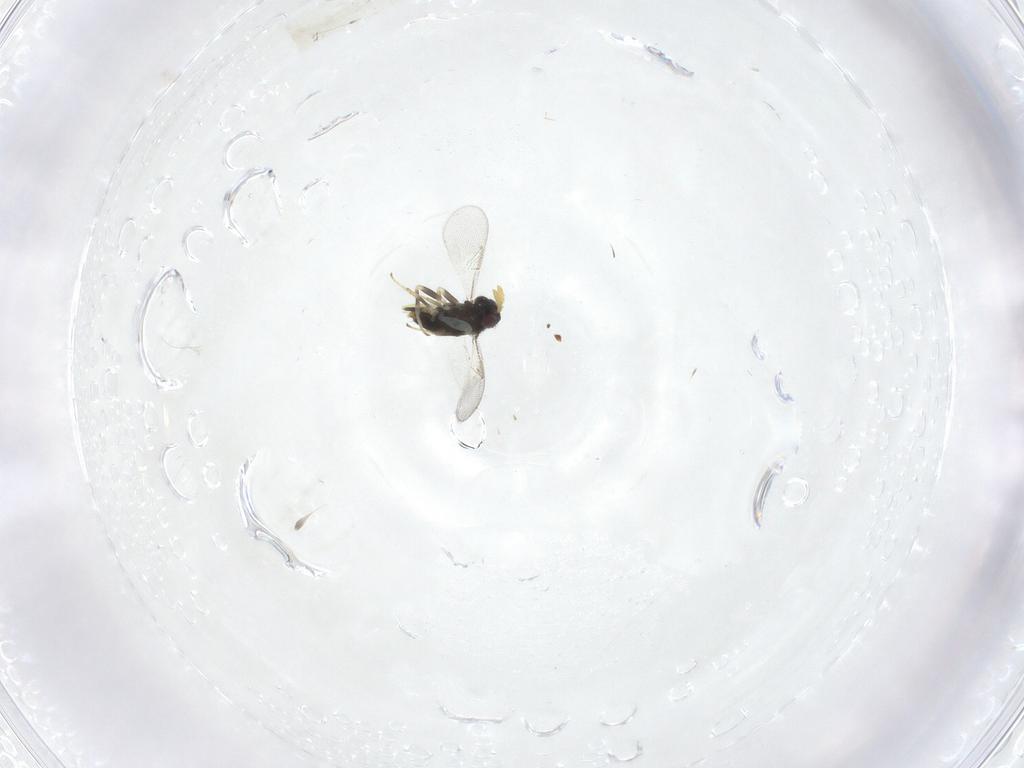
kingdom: Animalia
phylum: Arthropoda
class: Insecta
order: Hymenoptera
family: Aphelinidae
